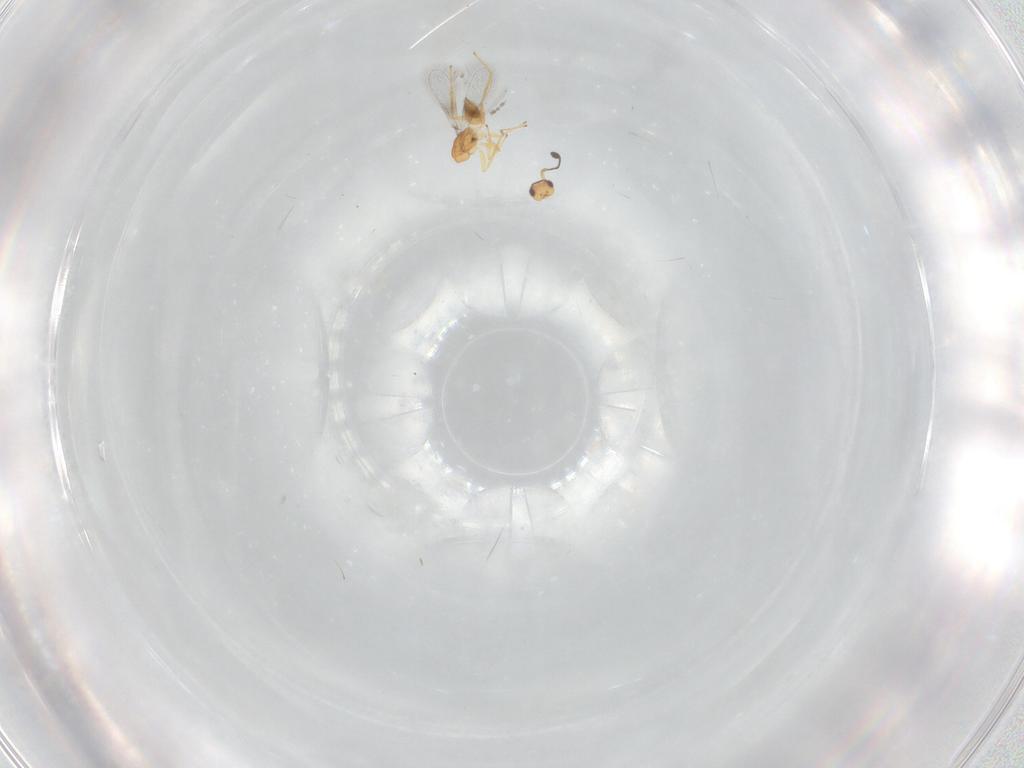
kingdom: Animalia
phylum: Arthropoda
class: Insecta
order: Hymenoptera
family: Mymaridae
